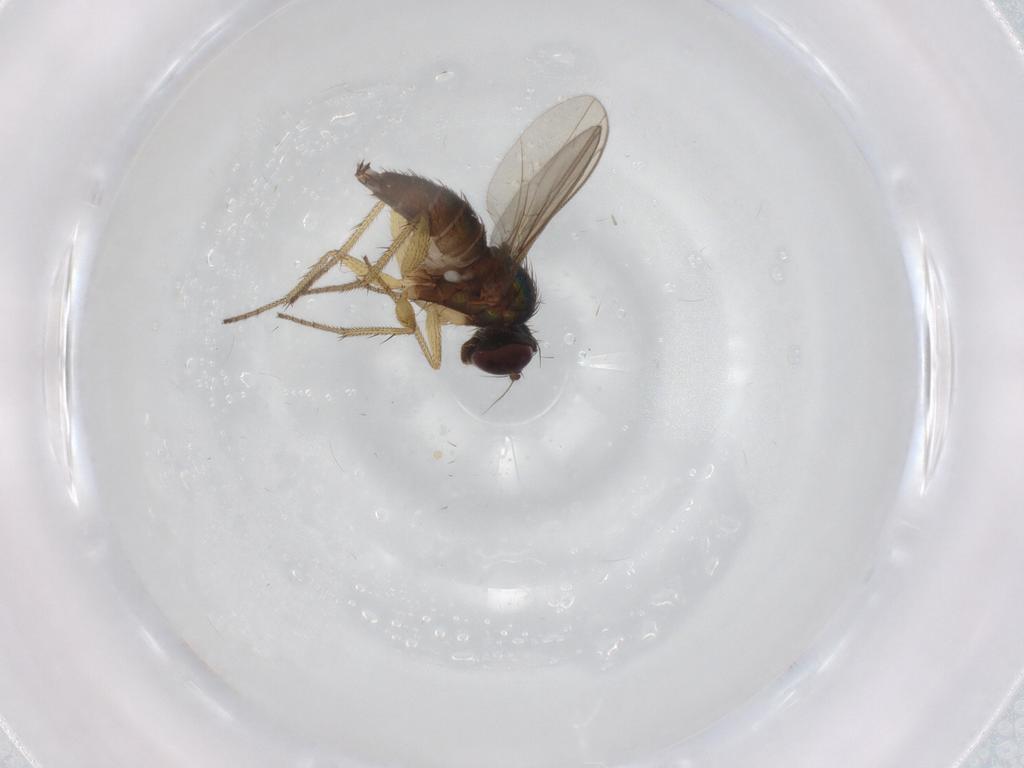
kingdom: Animalia
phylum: Arthropoda
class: Insecta
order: Diptera
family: Dolichopodidae
